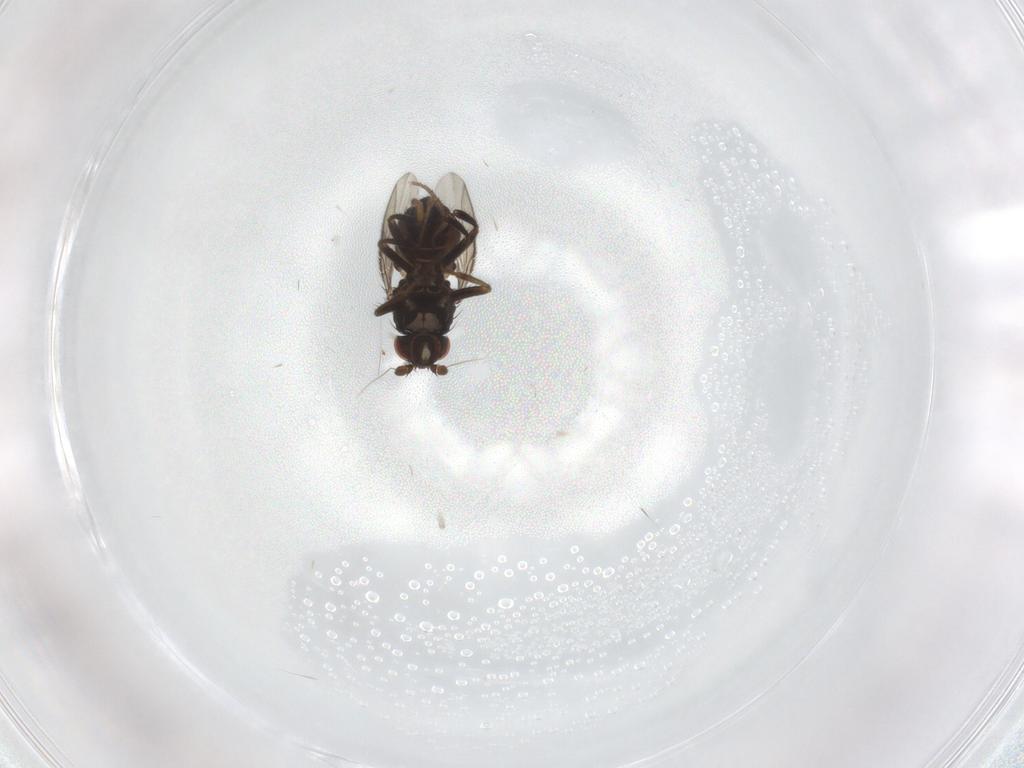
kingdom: Animalia
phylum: Arthropoda
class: Insecta
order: Diptera
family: Sphaeroceridae
